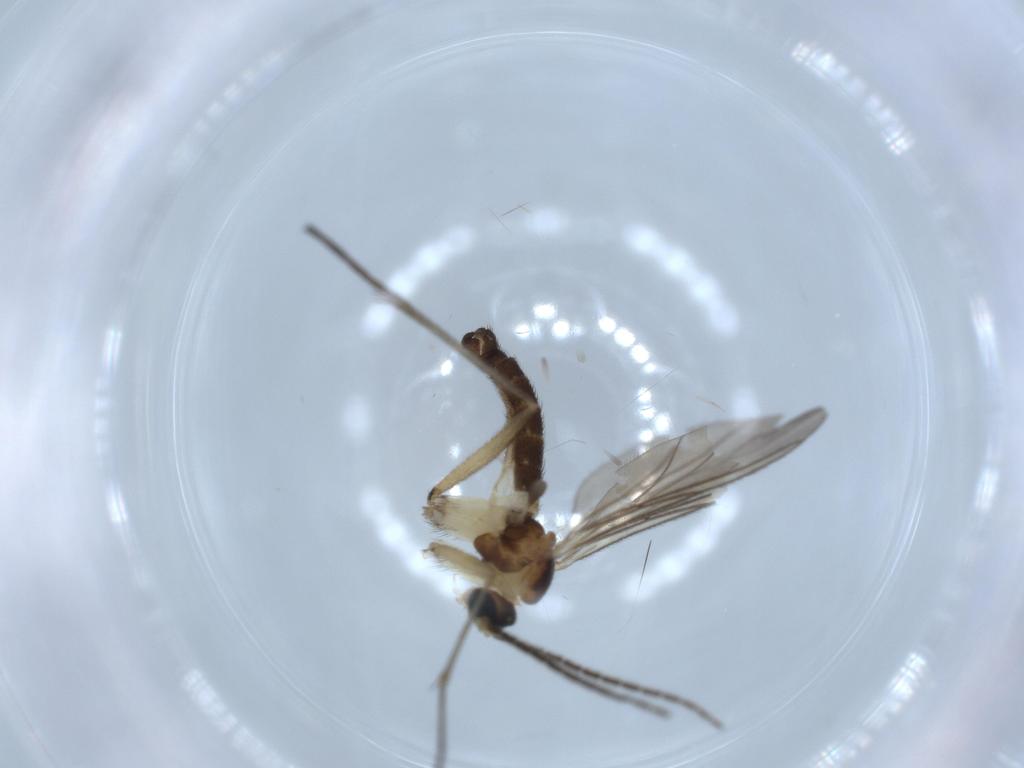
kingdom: Animalia
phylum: Arthropoda
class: Insecta
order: Diptera
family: Sciaridae
